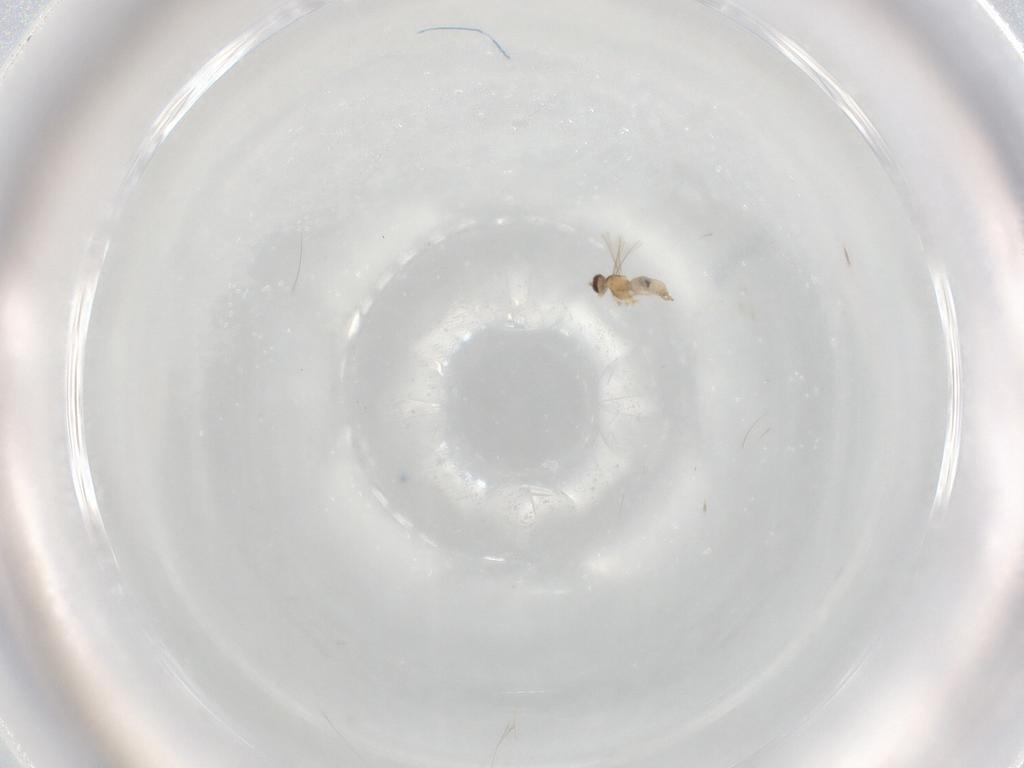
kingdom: Animalia
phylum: Arthropoda
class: Insecta
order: Diptera
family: Cecidomyiidae
